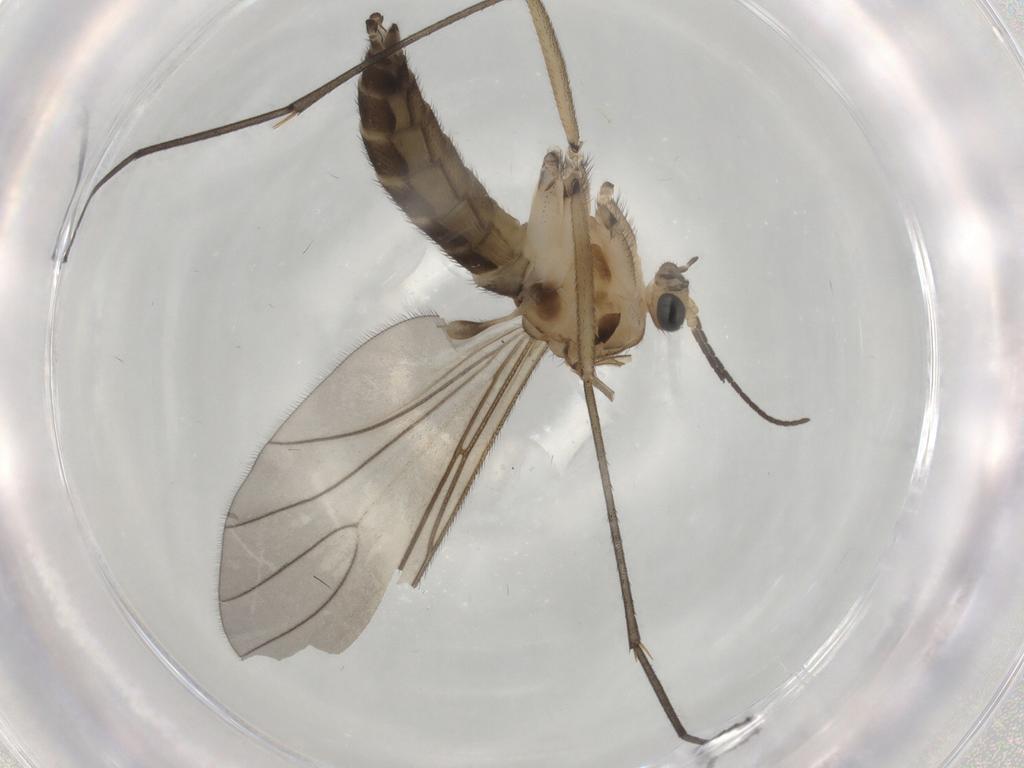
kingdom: Animalia
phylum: Arthropoda
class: Insecta
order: Diptera
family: Sciaridae
